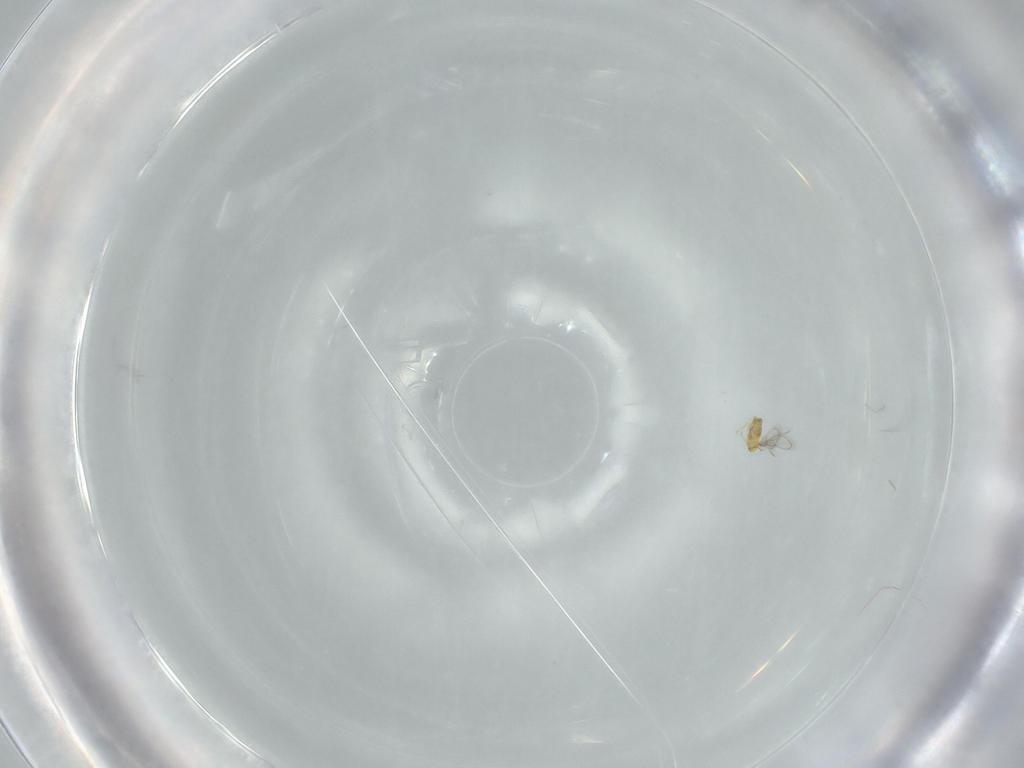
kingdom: Animalia
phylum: Arthropoda
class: Insecta
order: Hymenoptera
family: Trichogrammatidae
